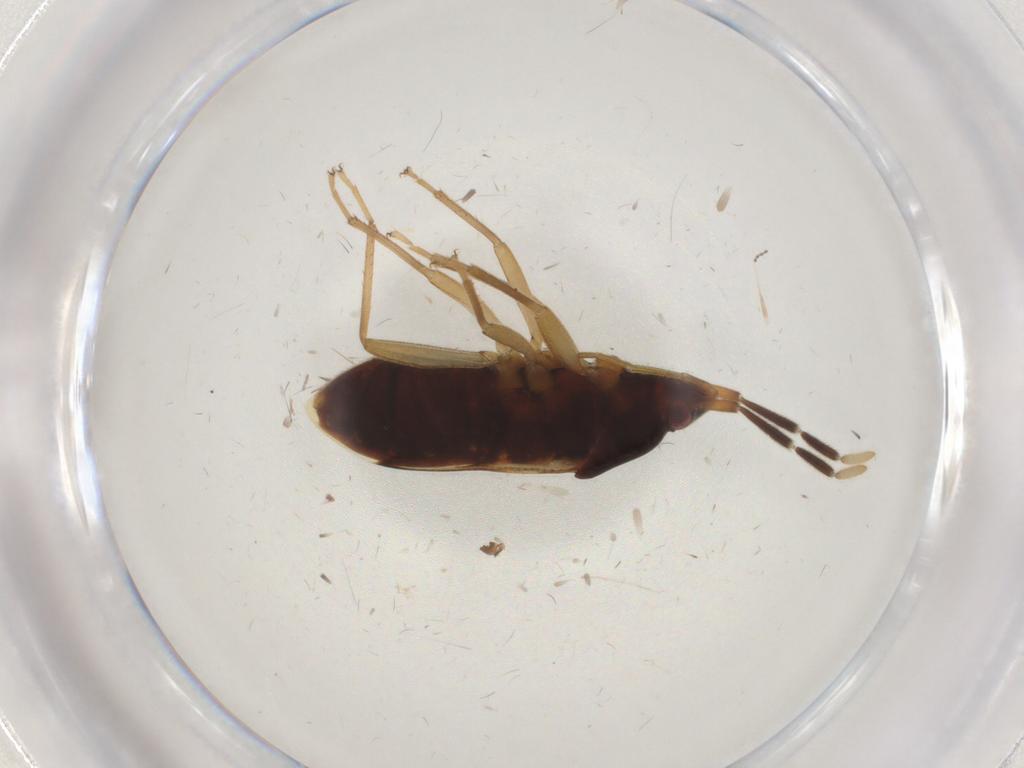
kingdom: Animalia
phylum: Arthropoda
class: Insecta
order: Hemiptera
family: Rhyparochromidae
